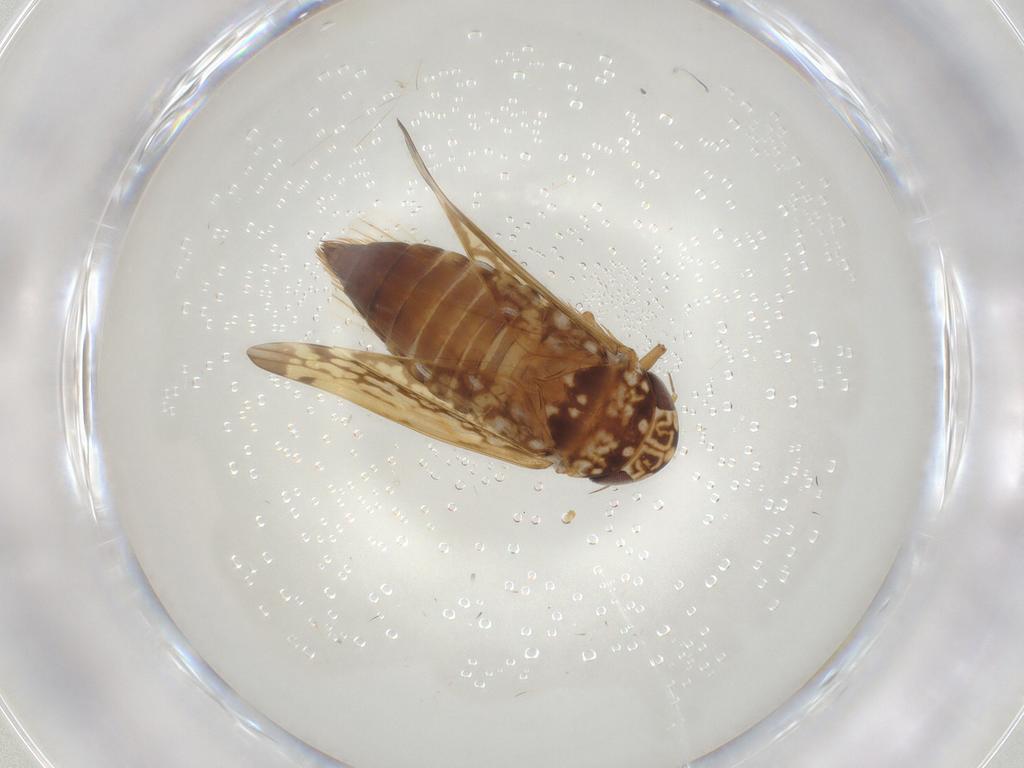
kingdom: Animalia
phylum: Arthropoda
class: Insecta
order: Hemiptera
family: Cicadellidae
